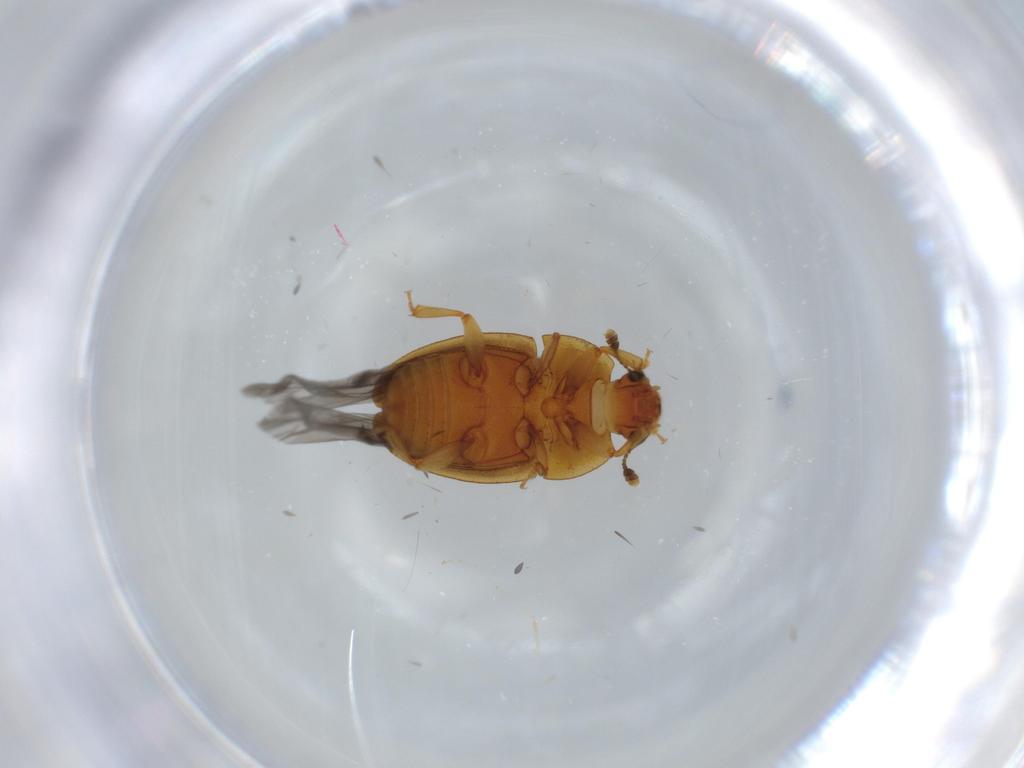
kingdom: Animalia
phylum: Arthropoda
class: Insecta
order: Coleoptera
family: Nitidulidae
